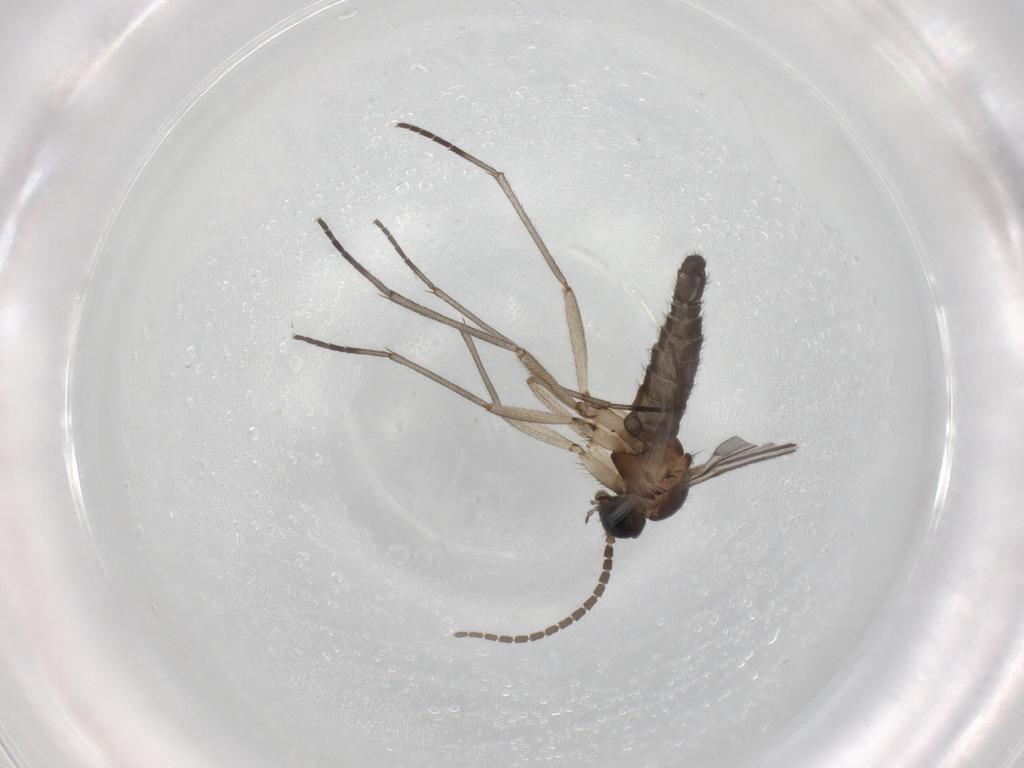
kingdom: Animalia
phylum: Arthropoda
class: Insecta
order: Diptera
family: Sciaridae
